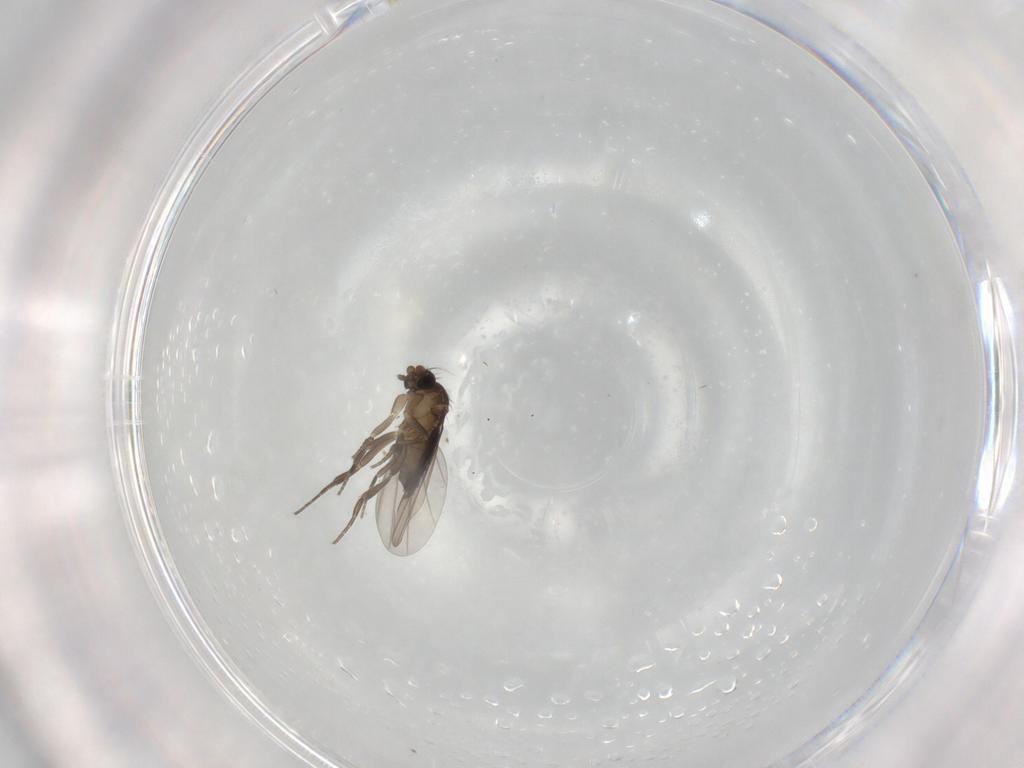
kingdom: Animalia
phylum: Arthropoda
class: Insecta
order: Diptera
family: Phoridae
